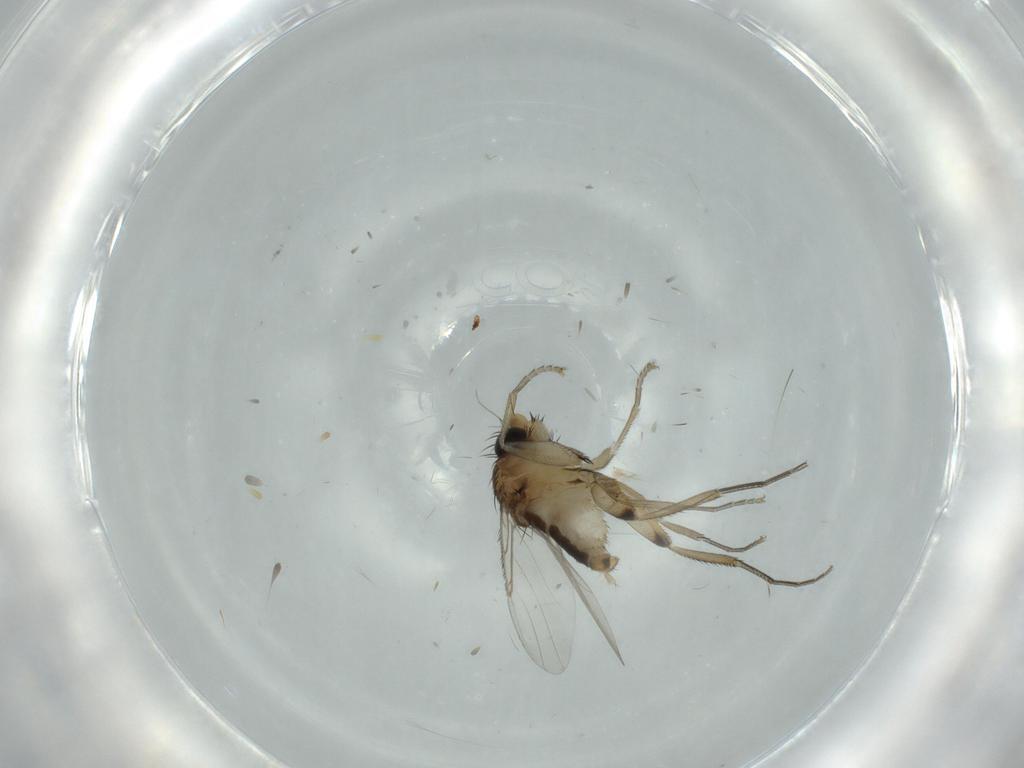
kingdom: Animalia
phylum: Arthropoda
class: Insecta
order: Diptera
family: Phoridae
